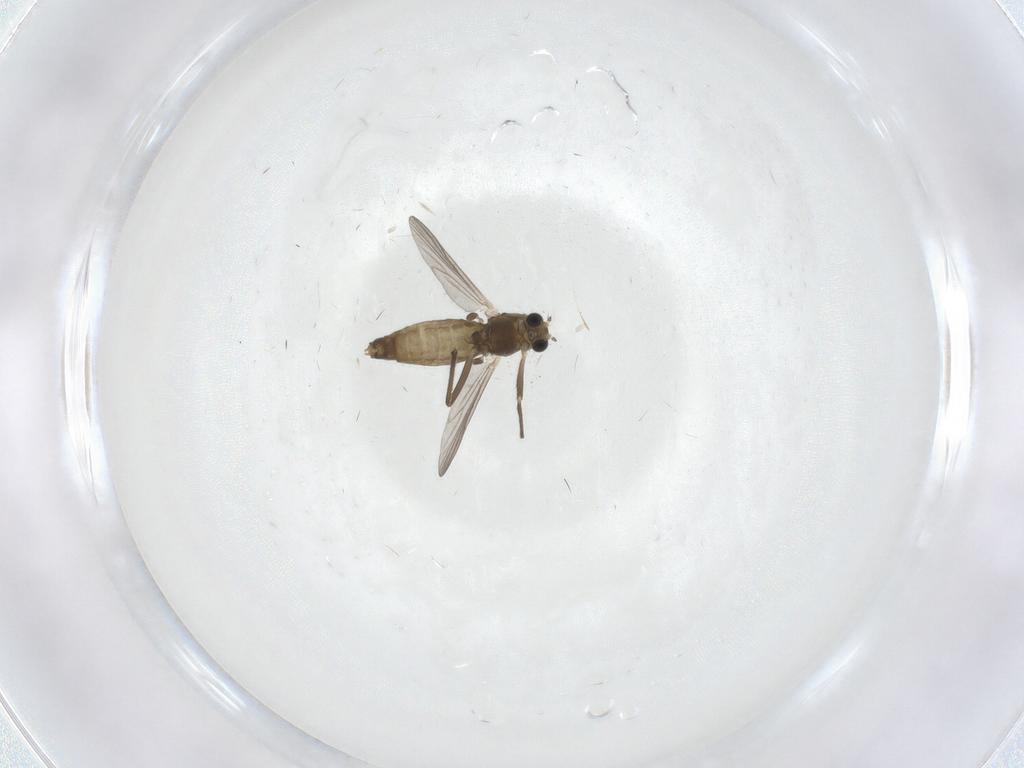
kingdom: Animalia
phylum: Arthropoda
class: Insecta
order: Diptera
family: Chironomidae
